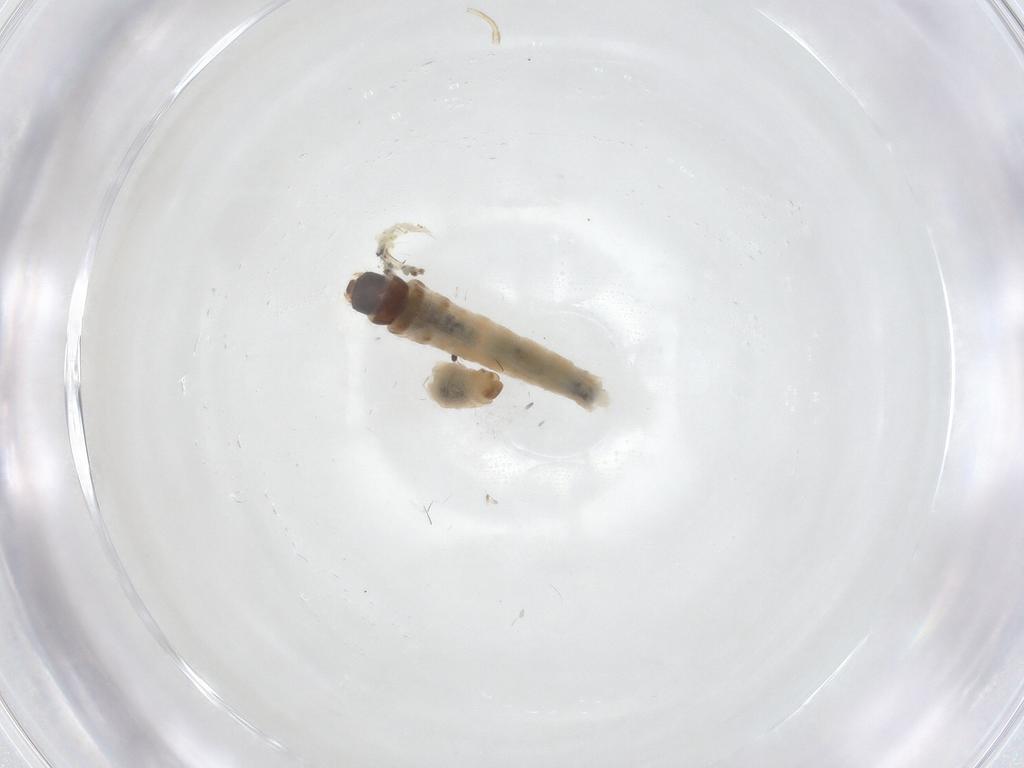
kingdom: Animalia
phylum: Arthropoda
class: Insecta
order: Lepidoptera
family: Psychidae
